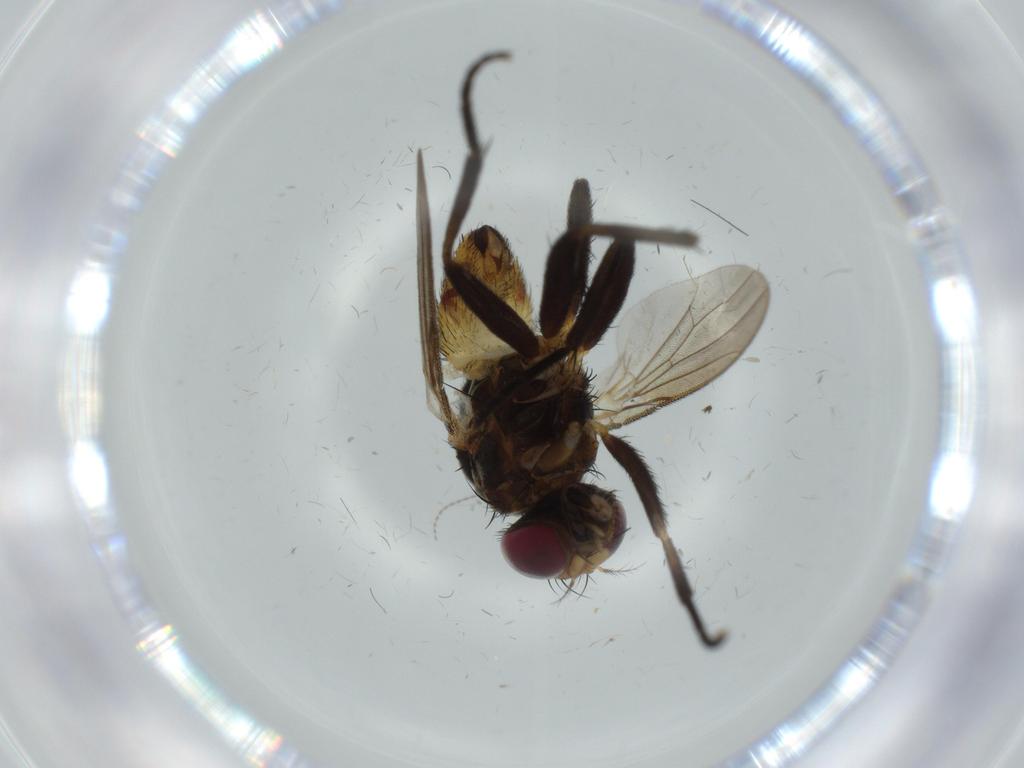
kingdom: Animalia
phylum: Arthropoda
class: Insecta
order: Diptera
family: Anthomyiidae
